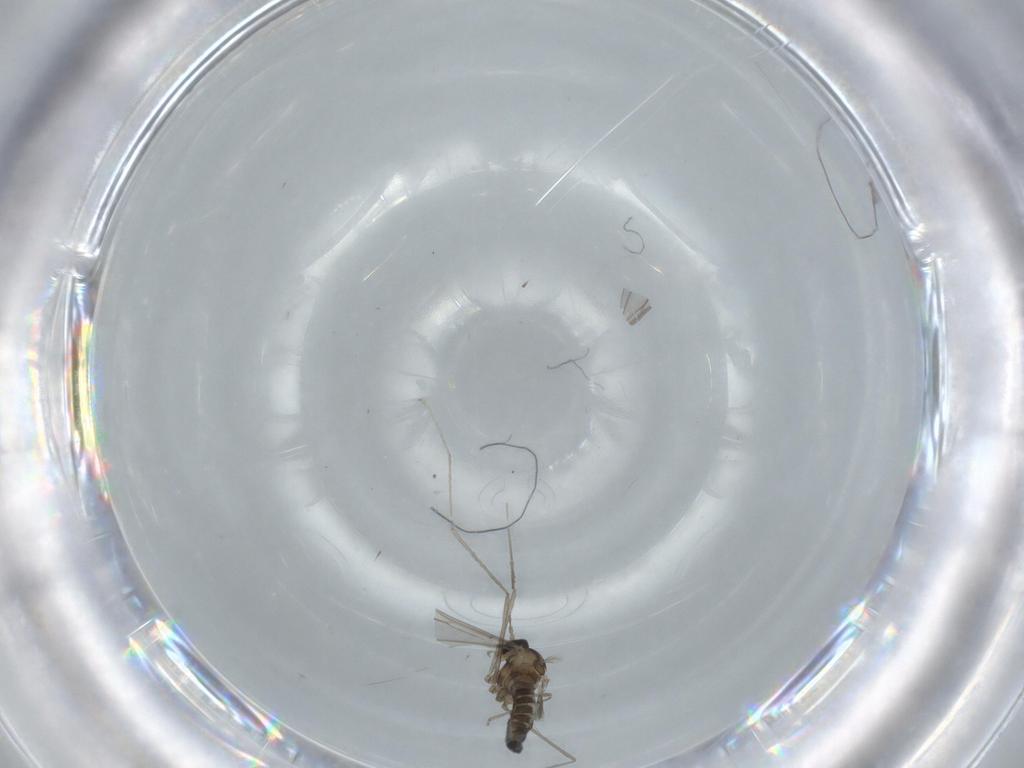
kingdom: Animalia
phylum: Arthropoda
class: Insecta
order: Diptera
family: Cecidomyiidae
